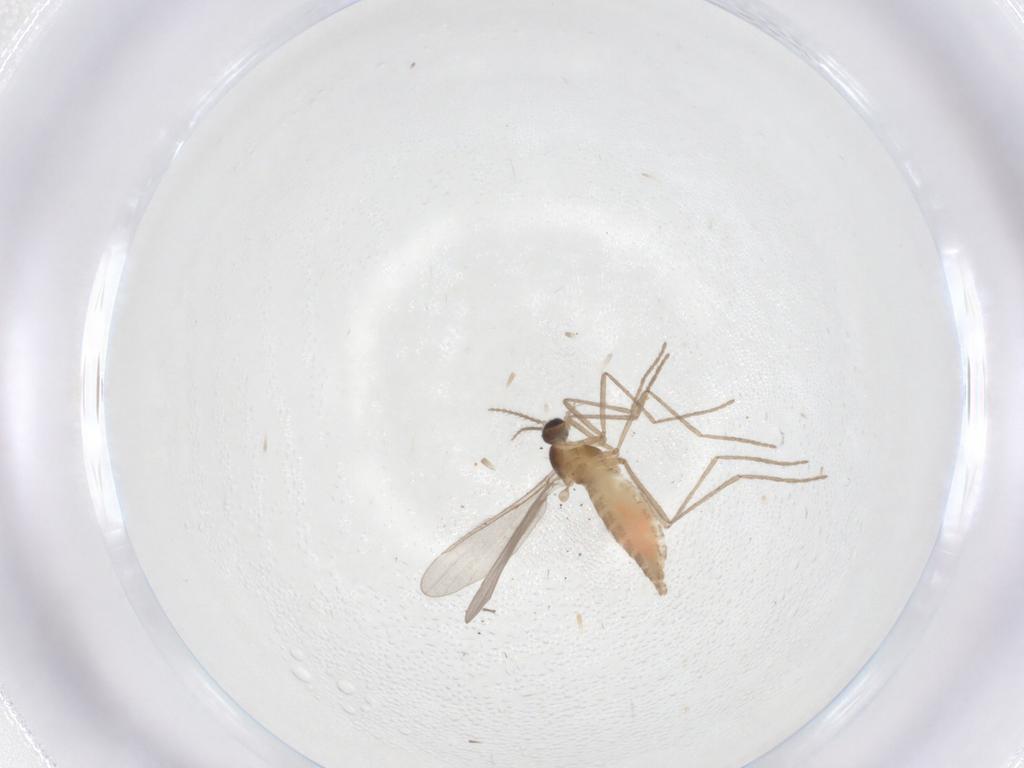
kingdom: Animalia
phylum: Arthropoda
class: Insecta
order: Diptera
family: Cecidomyiidae
